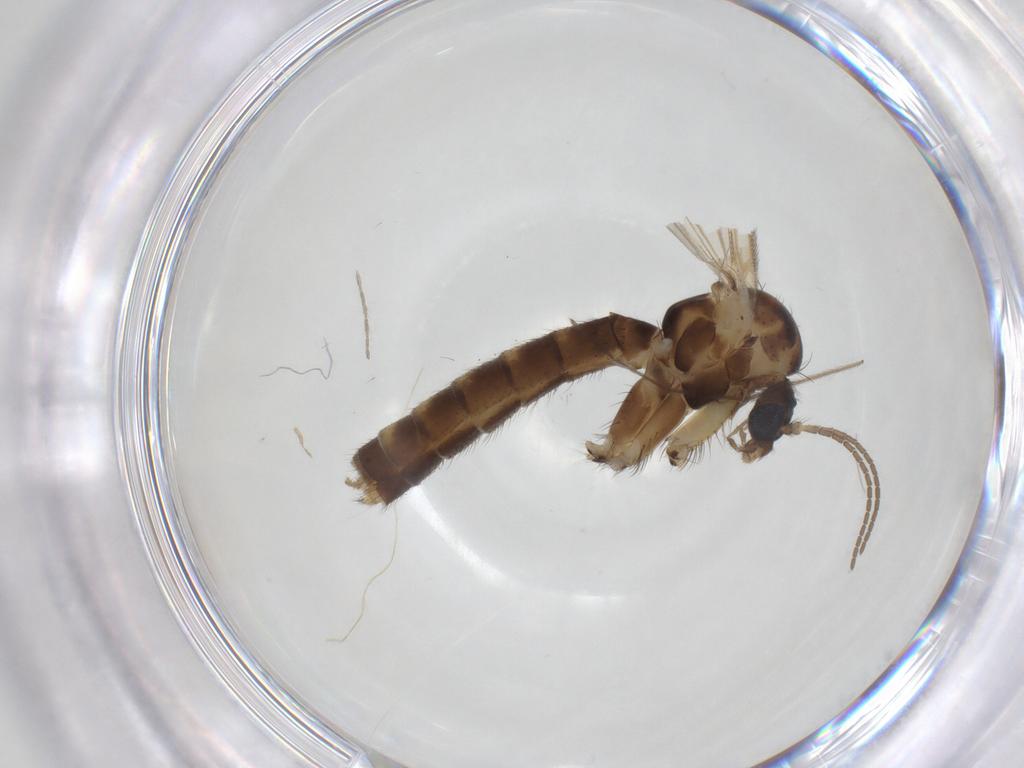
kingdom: Animalia
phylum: Arthropoda
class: Insecta
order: Diptera
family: Mycetophilidae
